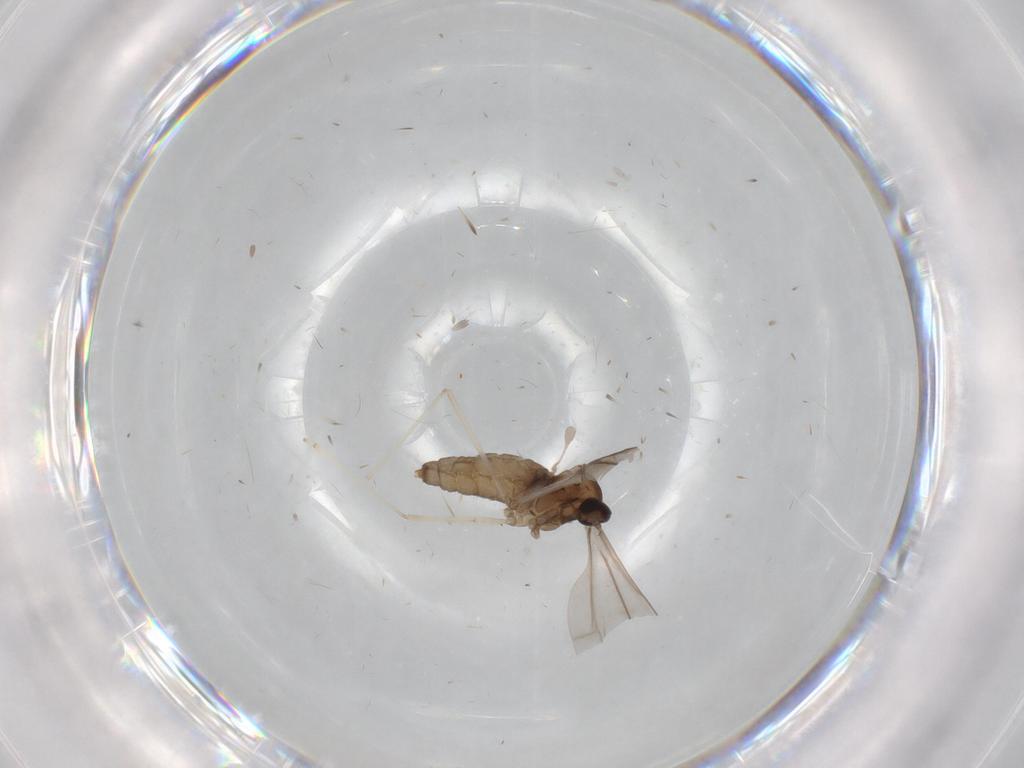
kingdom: Animalia
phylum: Arthropoda
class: Insecta
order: Diptera
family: Cecidomyiidae
